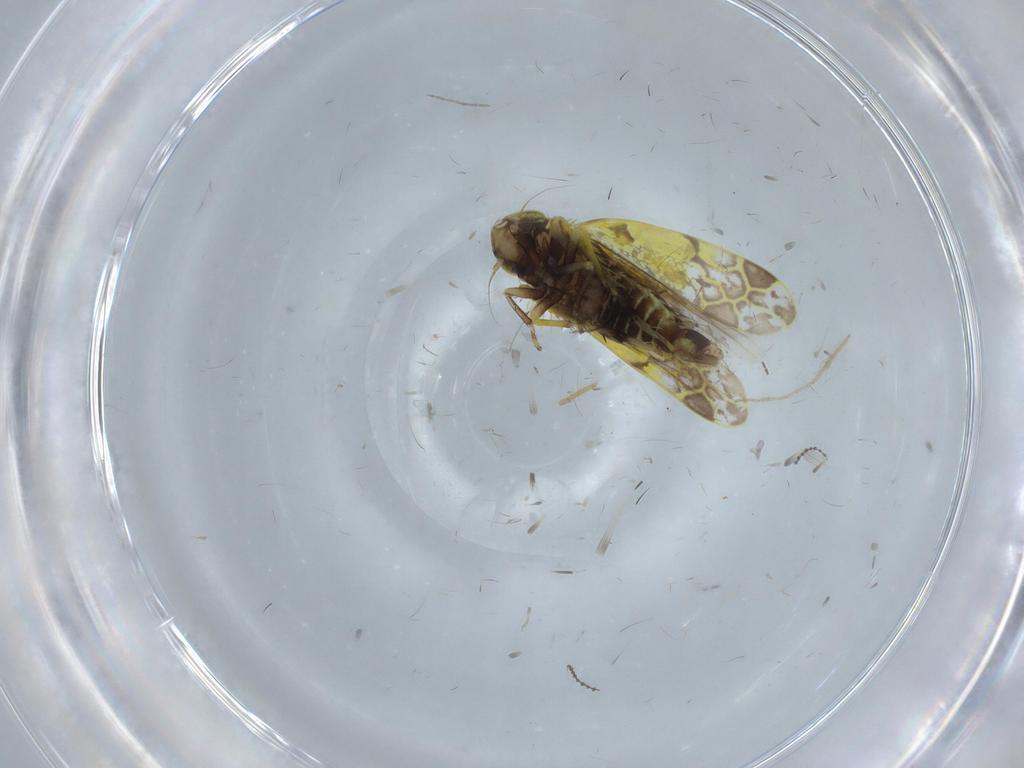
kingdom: Animalia
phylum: Arthropoda
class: Insecta
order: Hemiptera
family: Cicadellidae
